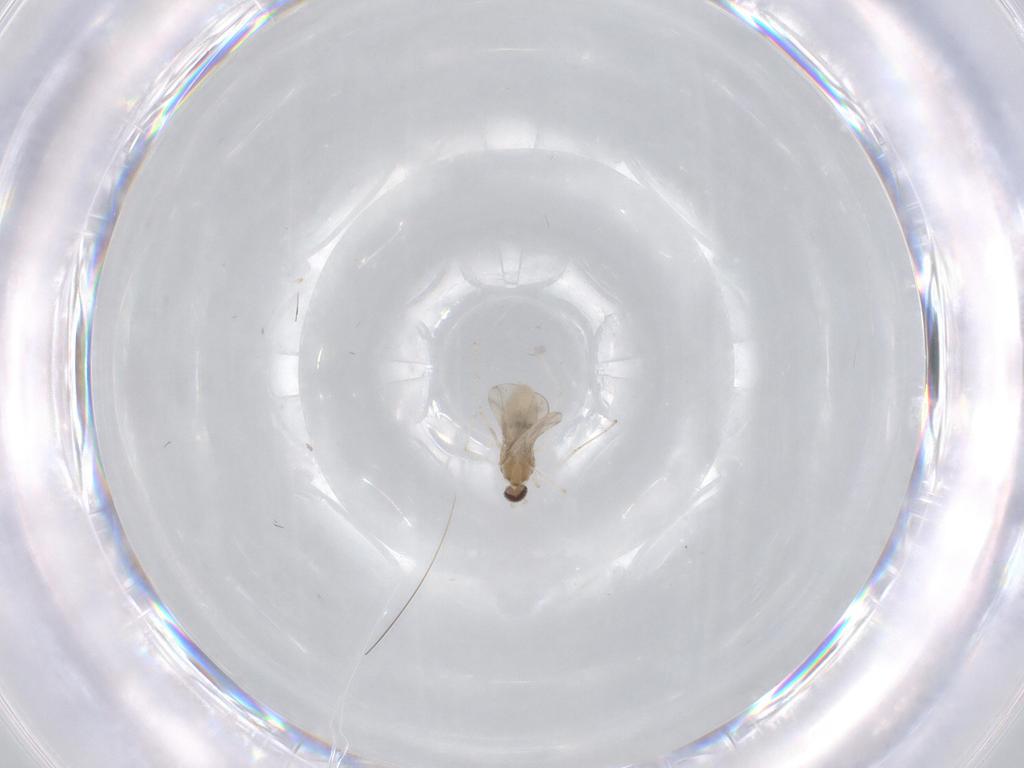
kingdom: Animalia
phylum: Arthropoda
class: Insecta
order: Diptera
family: Cecidomyiidae
